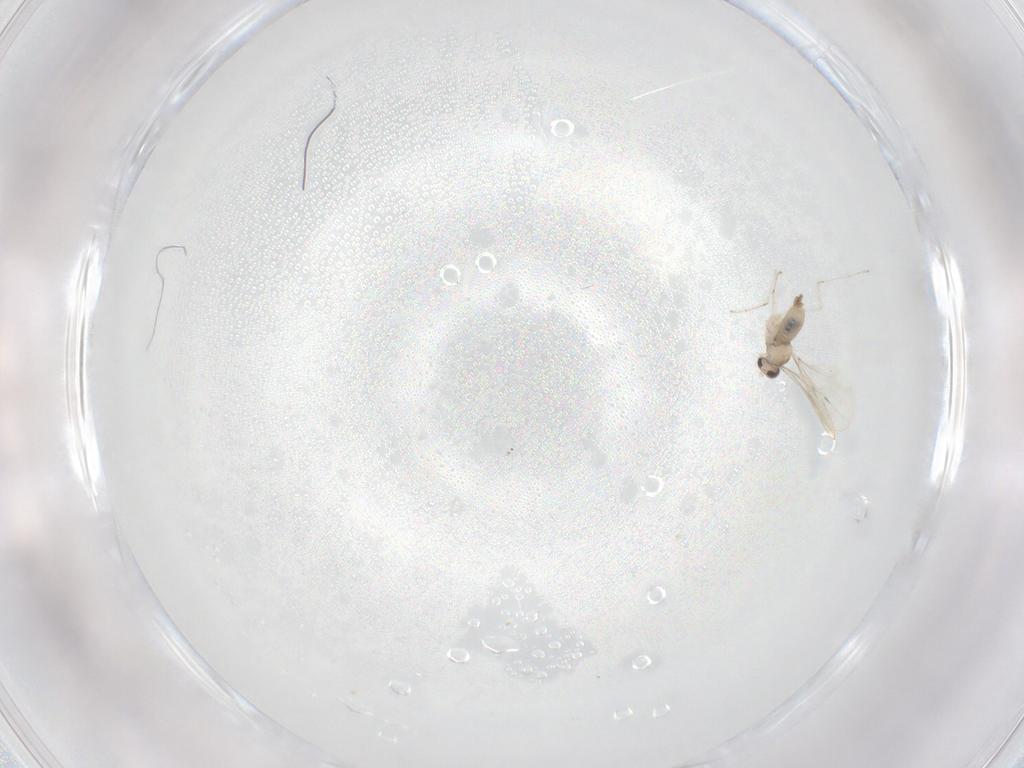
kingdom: Animalia
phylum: Arthropoda
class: Insecta
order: Diptera
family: Cecidomyiidae
